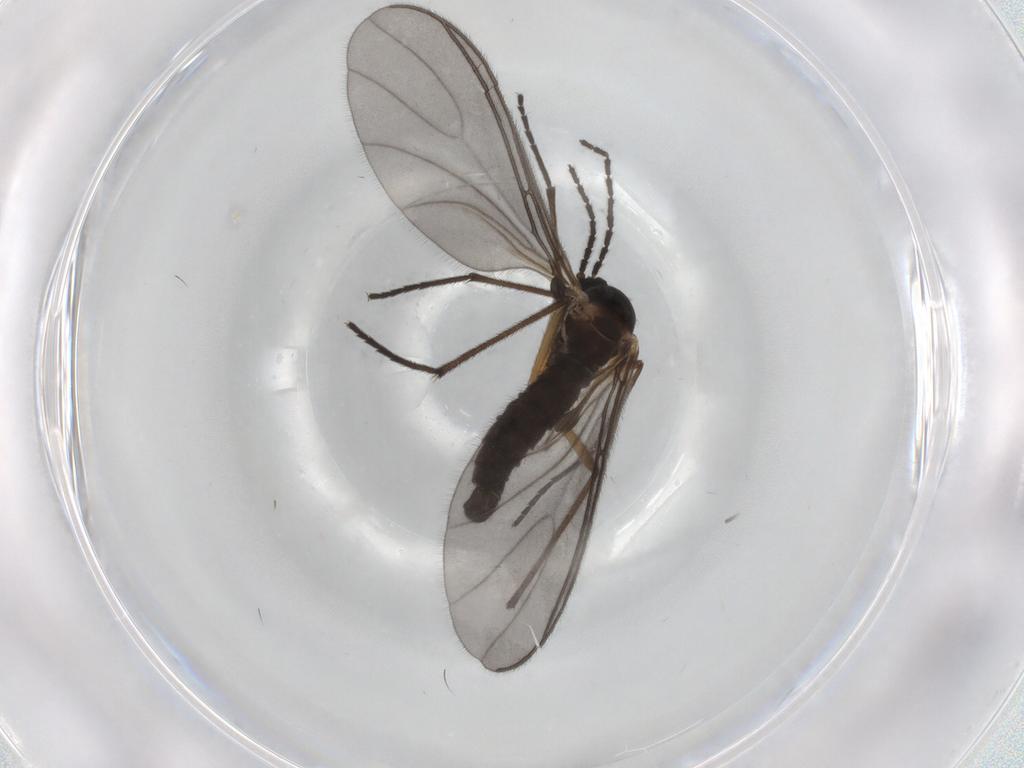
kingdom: Animalia
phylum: Arthropoda
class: Insecta
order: Diptera
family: Sciaridae
